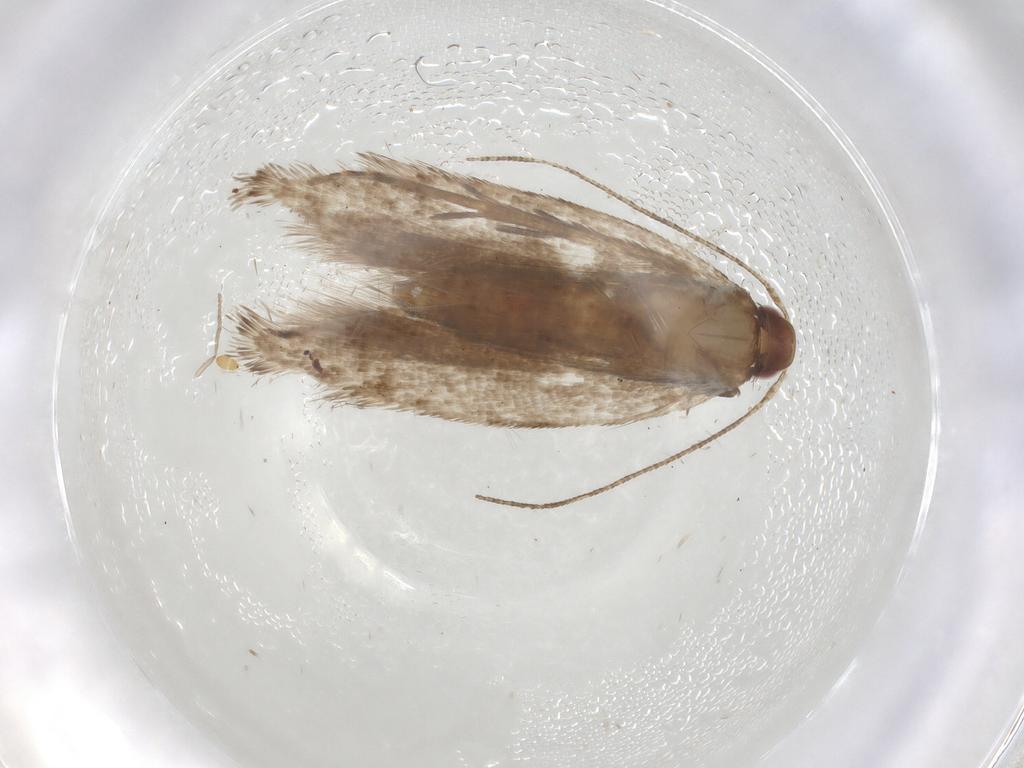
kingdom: Animalia
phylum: Arthropoda
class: Insecta
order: Lepidoptera
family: Gelechiidae
